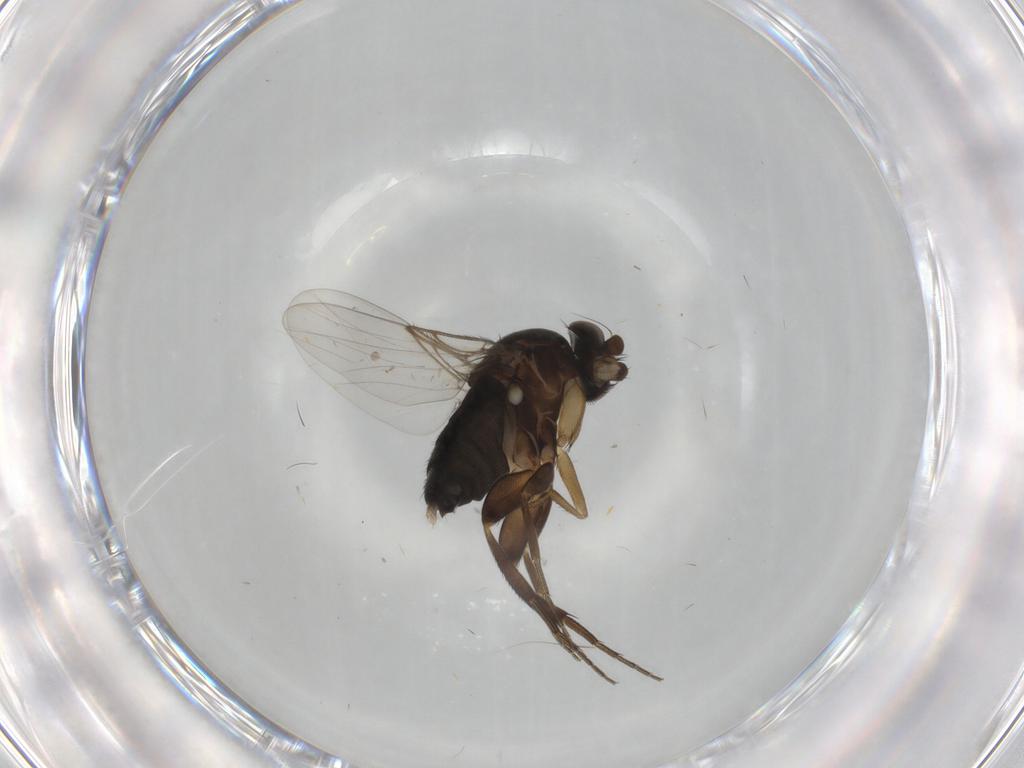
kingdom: Animalia
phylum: Arthropoda
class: Insecta
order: Diptera
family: Phoridae
